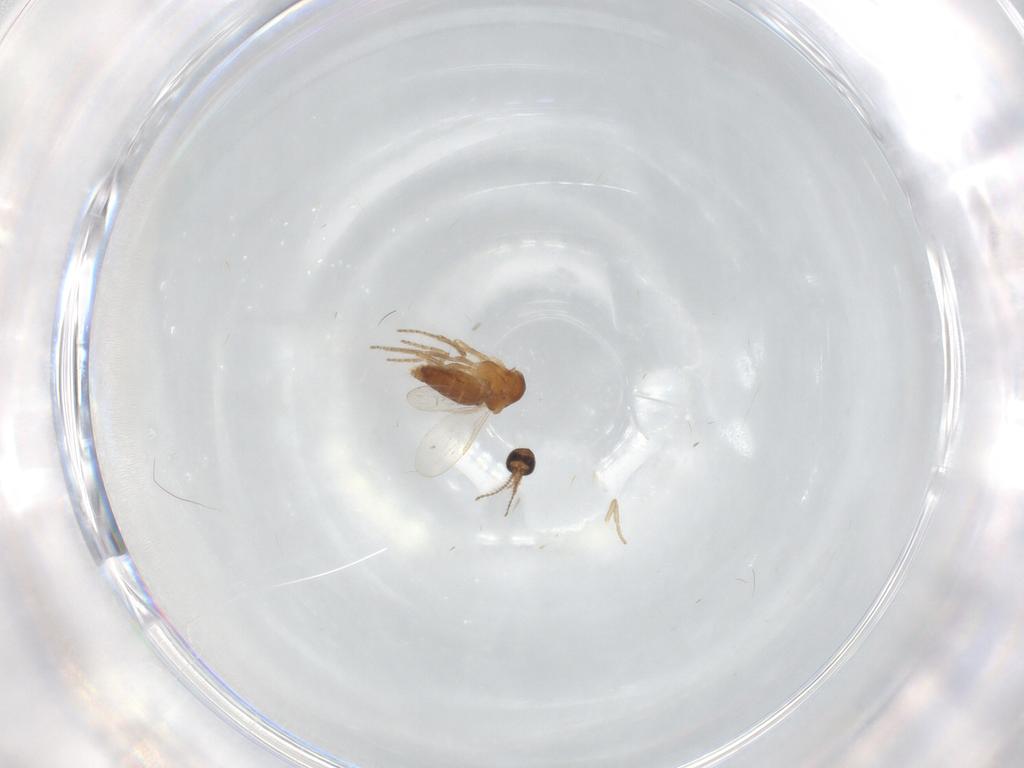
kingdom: Animalia
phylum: Arthropoda
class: Insecta
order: Diptera
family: Ceratopogonidae
